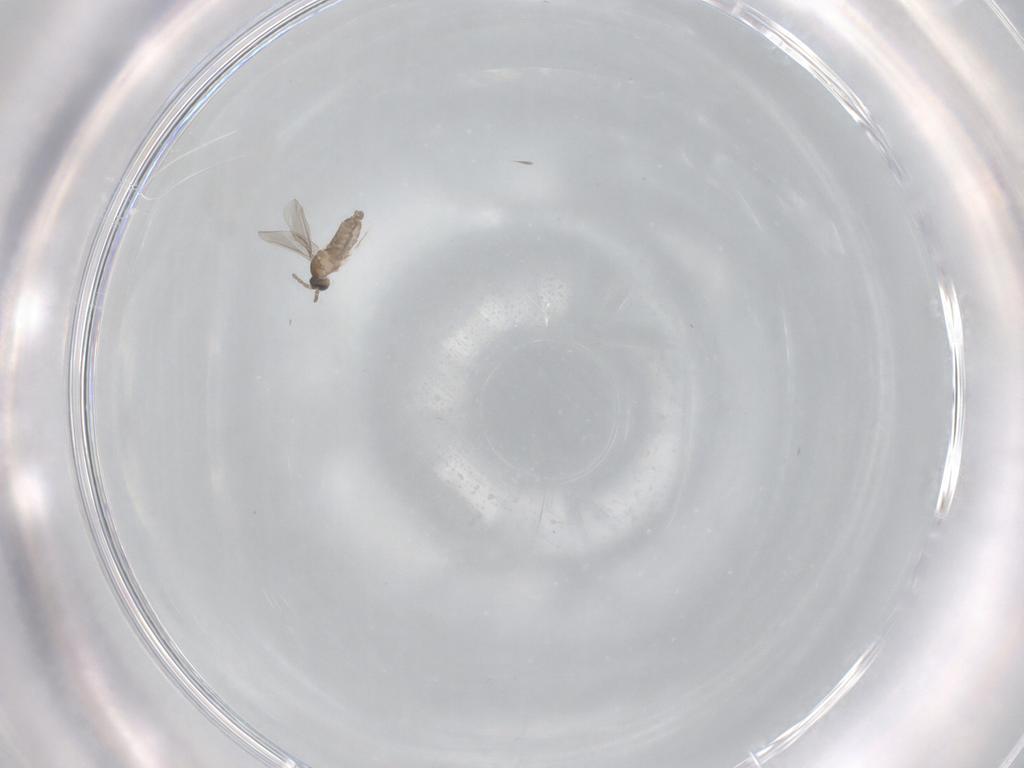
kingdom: Animalia
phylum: Arthropoda
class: Insecta
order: Diptera
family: Cecidomyiidae
